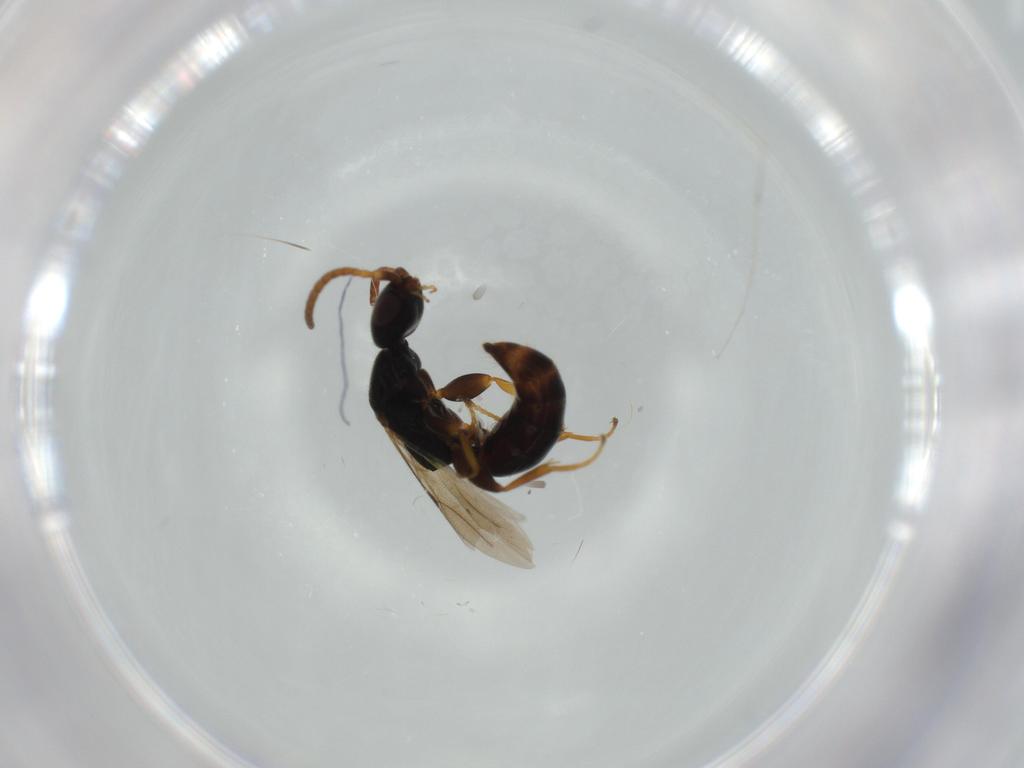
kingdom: Animalia
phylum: Arthropoda
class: Insecta
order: Hymenoptera
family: Bethylidae
